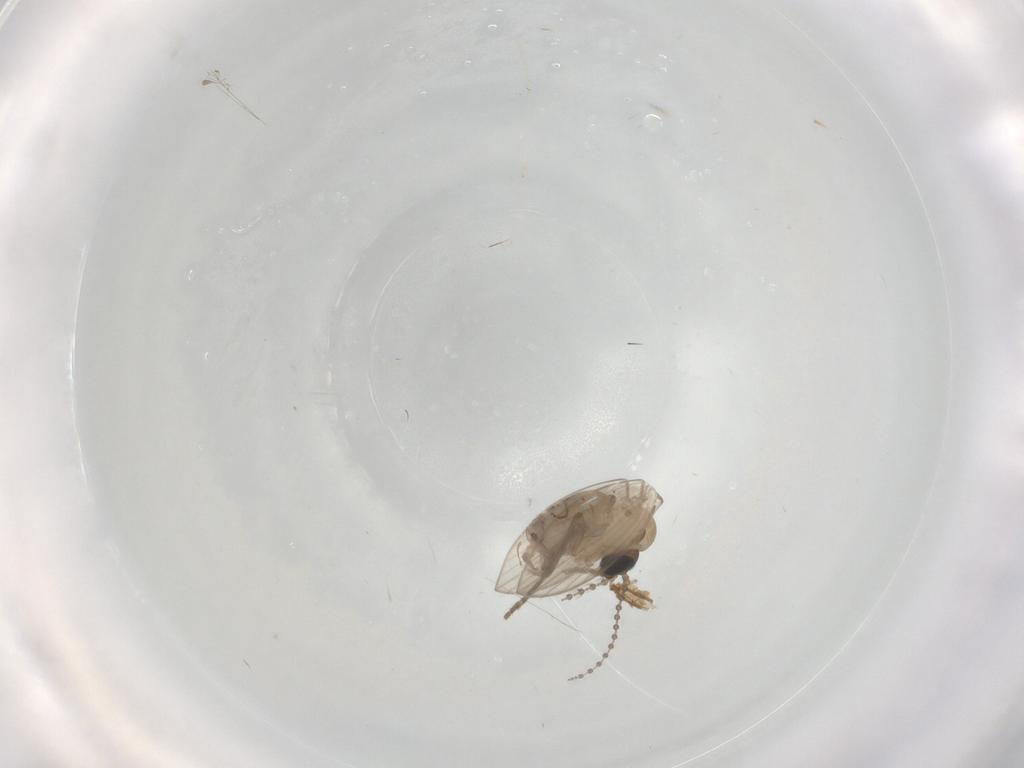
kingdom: Animalia
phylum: Arthropoda
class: Insecta
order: Diptera
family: Psychodidae
